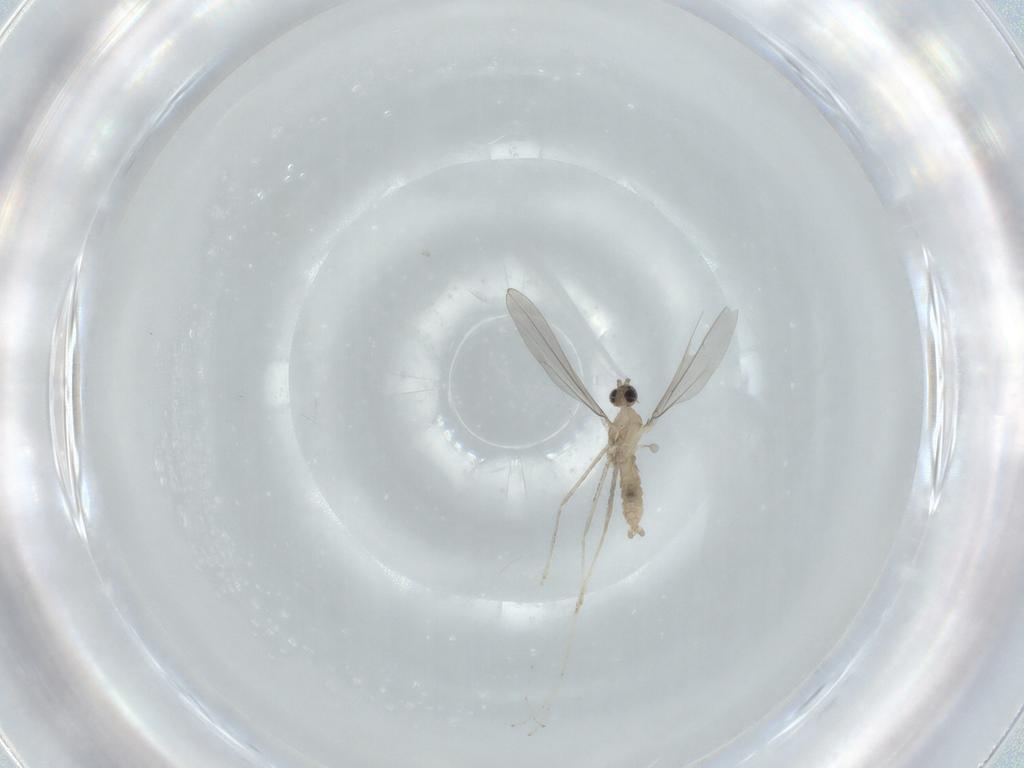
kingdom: Animalia
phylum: Arthropoda
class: Insecta
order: Diptera
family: Cecidomyiidae
